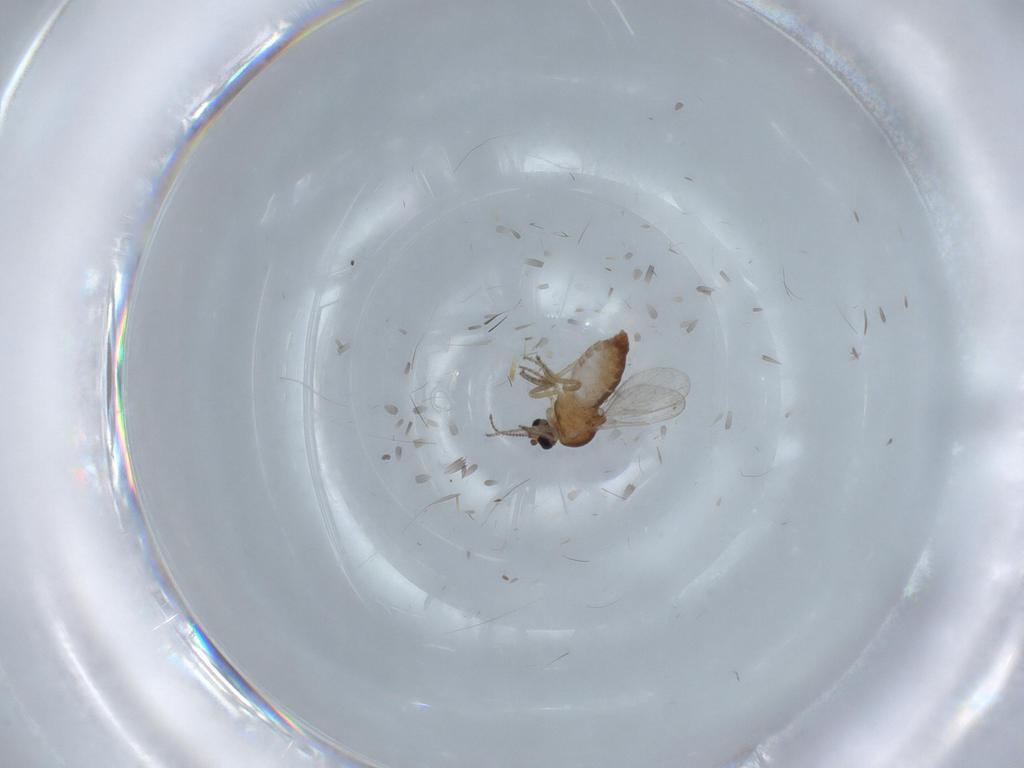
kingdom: Animalia
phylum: Arthropoda
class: Insecta
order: Diptera
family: Ceratopogonidae
